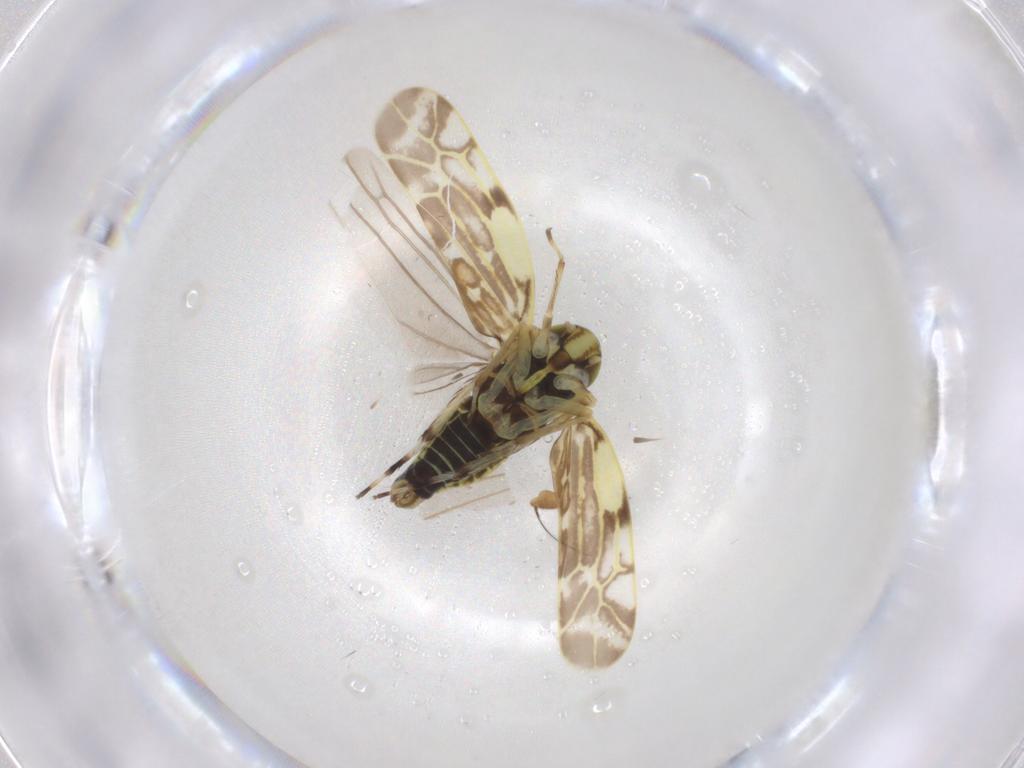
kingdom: Animalia
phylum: Arthropoda
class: Insecta
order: Hemiptera
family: Cicadellidae
